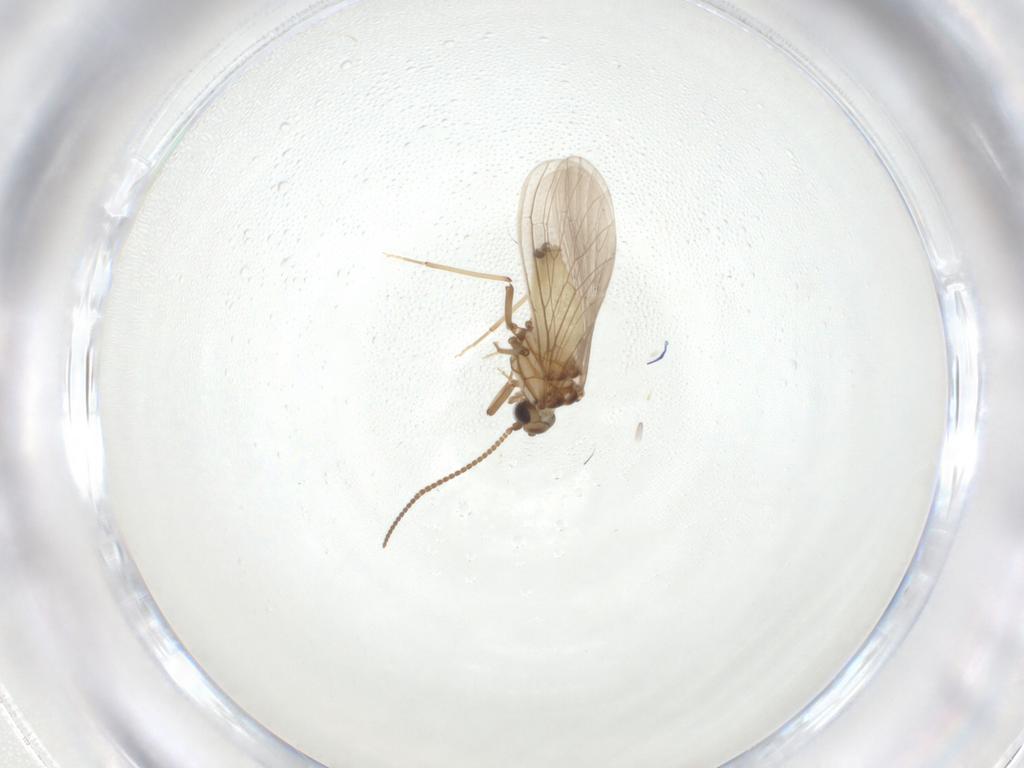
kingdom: Animalia
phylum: Arthropoda
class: Insecta
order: Neuroptera
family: Coniopterygidae
